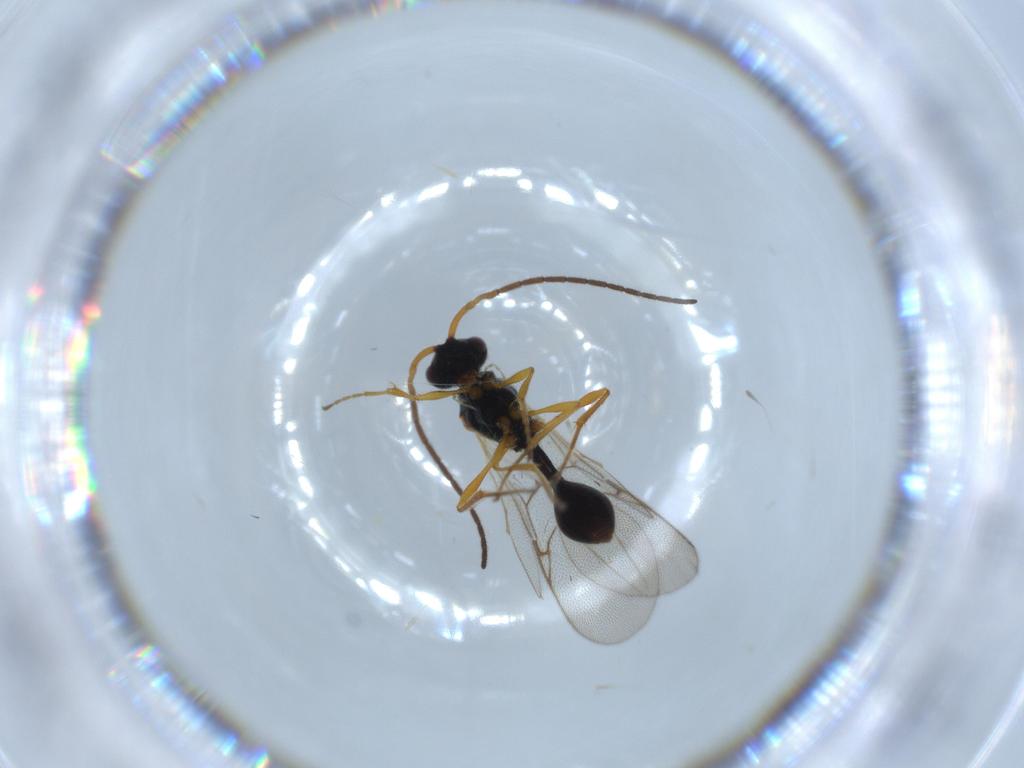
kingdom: Animalia
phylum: Arthropoda
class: Insecta
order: Hymenoptera
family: Diapriidae
